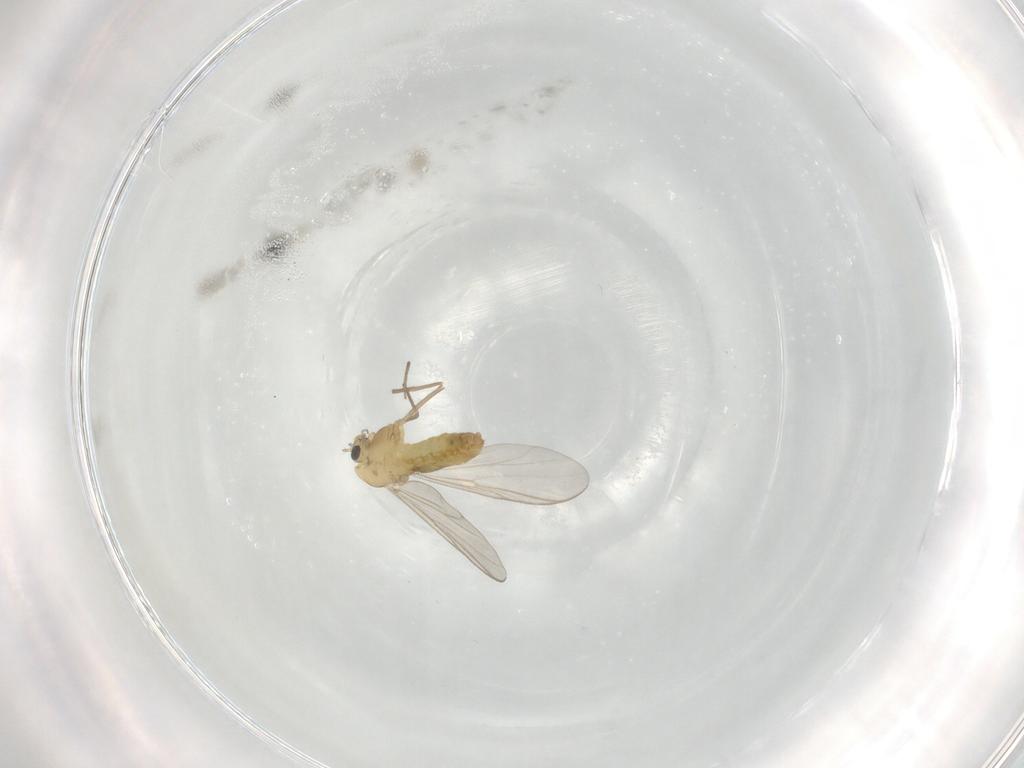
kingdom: Animalia
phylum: Arthropoda
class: Insecta
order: Diptera
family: Chironomidae
